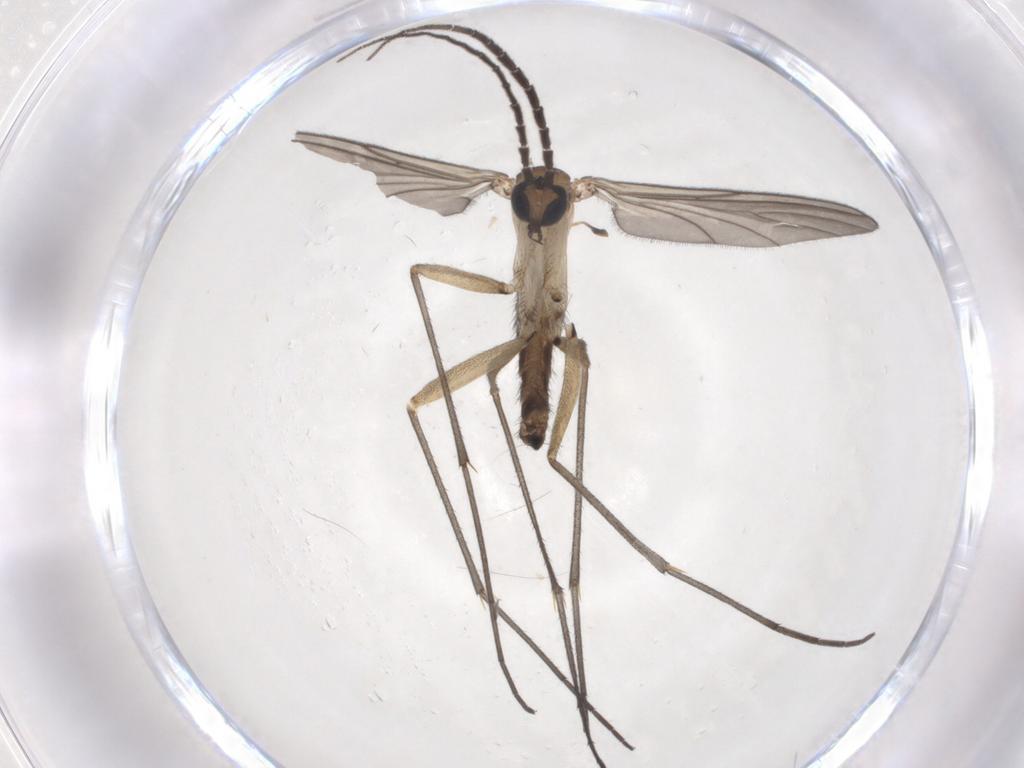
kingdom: Animalia
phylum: Arthropoda
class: Insecta
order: Diptera
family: Sciaridae
